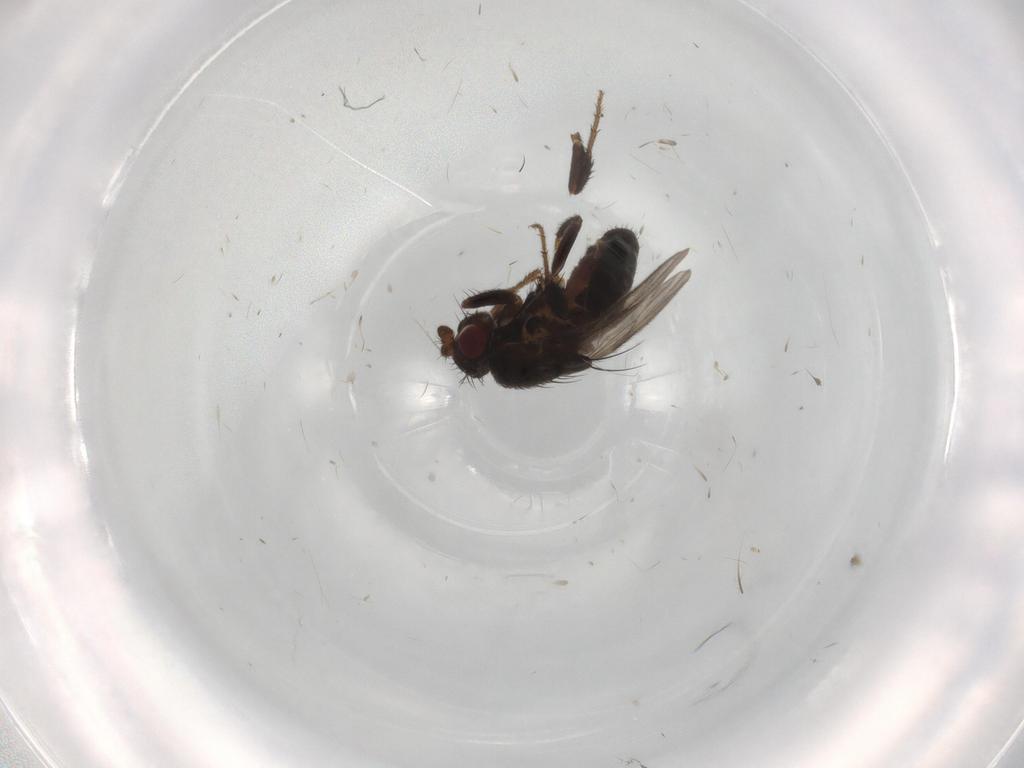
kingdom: Animalia
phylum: Arthropoda
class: Insecta
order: Diptera
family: Sphaeroceridae
